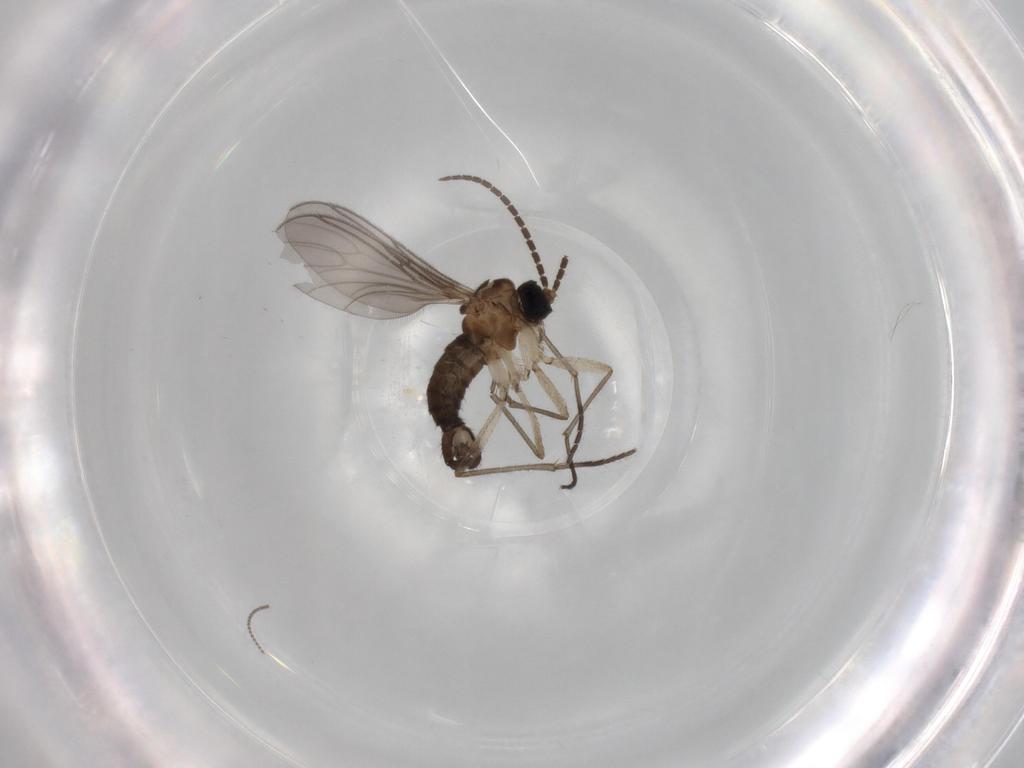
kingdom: Animalia
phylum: Arthropoda
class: Insecta
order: Diptera
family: Sciaridae
